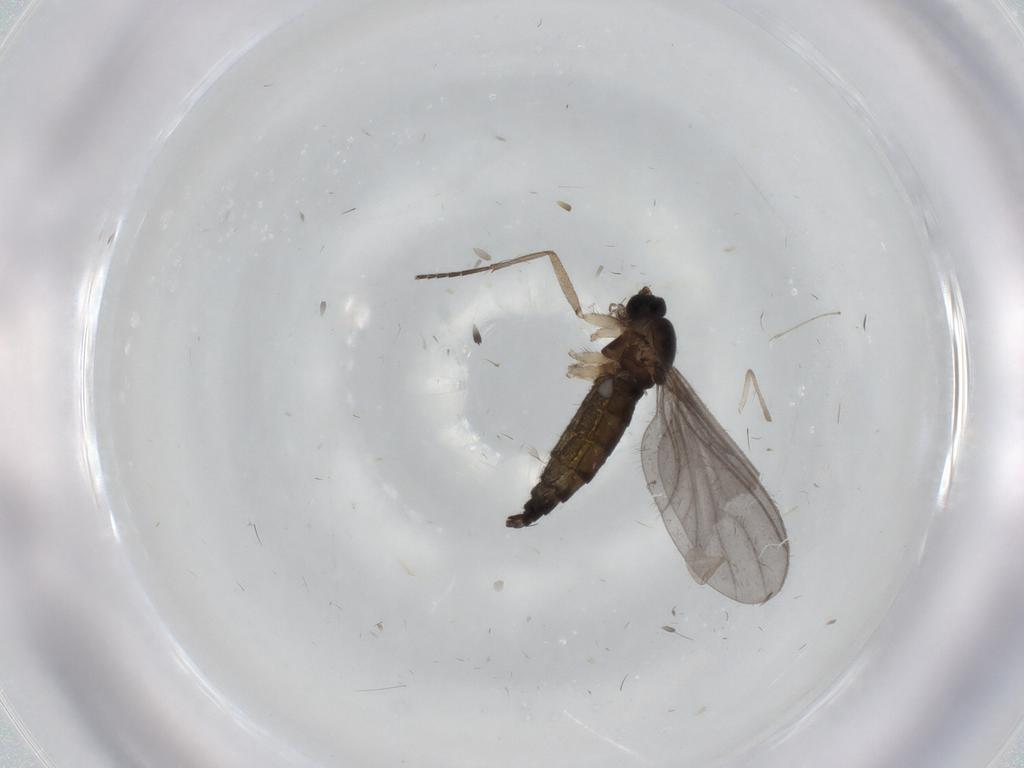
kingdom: Animalia
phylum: Arthropoda
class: Insecta
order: Diptera
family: Sciaridae
